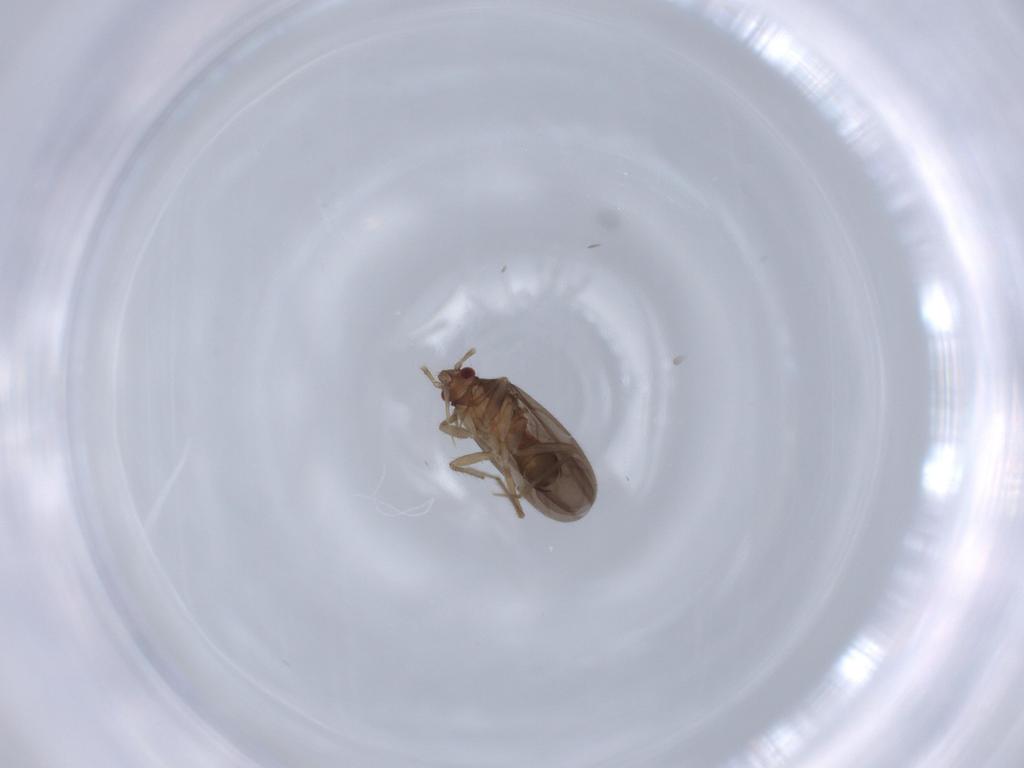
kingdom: Animalia
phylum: Arthropoda
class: Insecta
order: Hemiptera
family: Ceratocombidae
